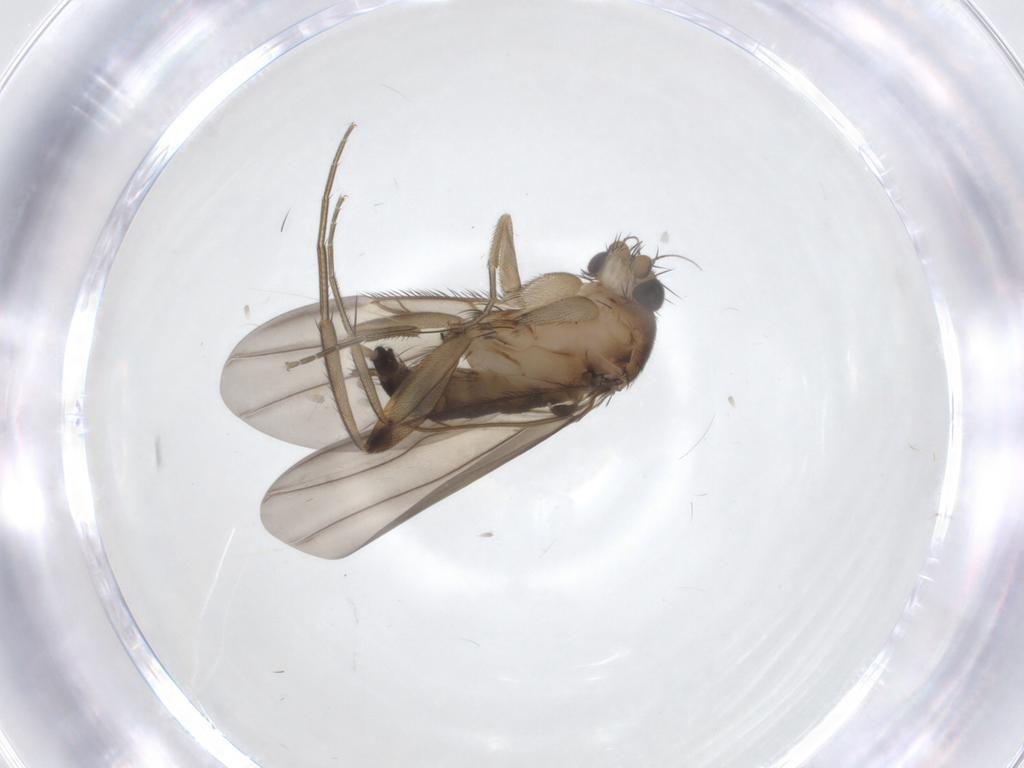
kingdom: Animalia
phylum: Arthropoda
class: Insecta
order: Diptera
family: Phoridae
